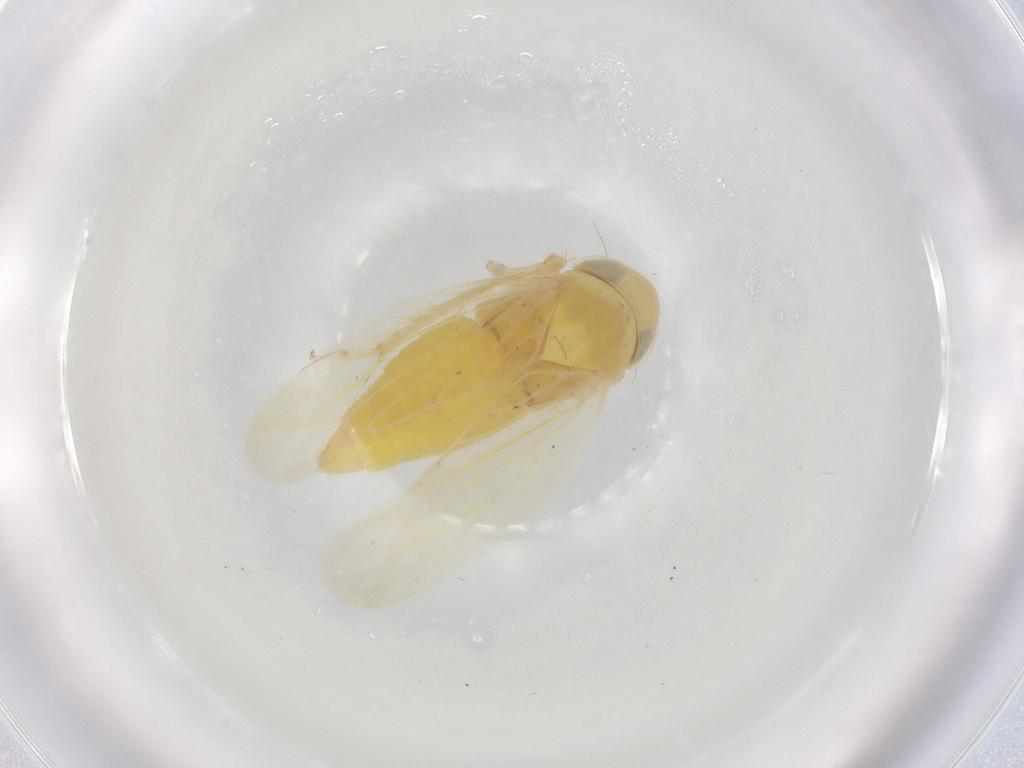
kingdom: Animalia
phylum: Arthropoda
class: Insecta
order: Hemiptera
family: Cicadellidae
